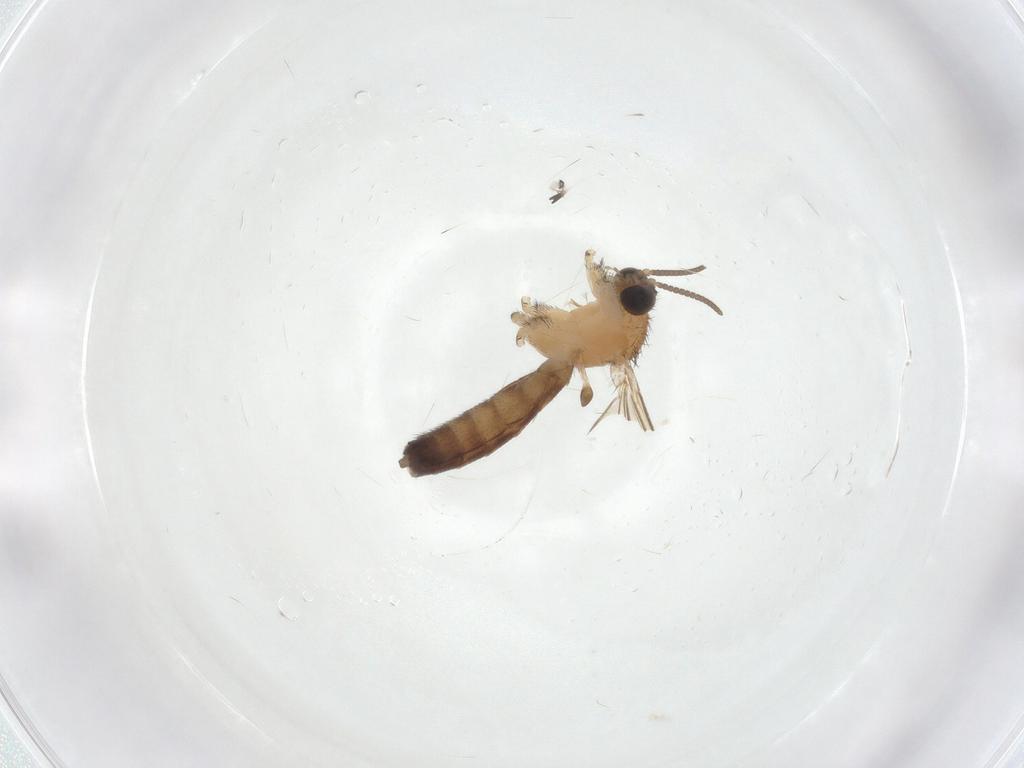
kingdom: Animalia
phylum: Arthropoda
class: Insecta
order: Diptera
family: Keroplatidae
